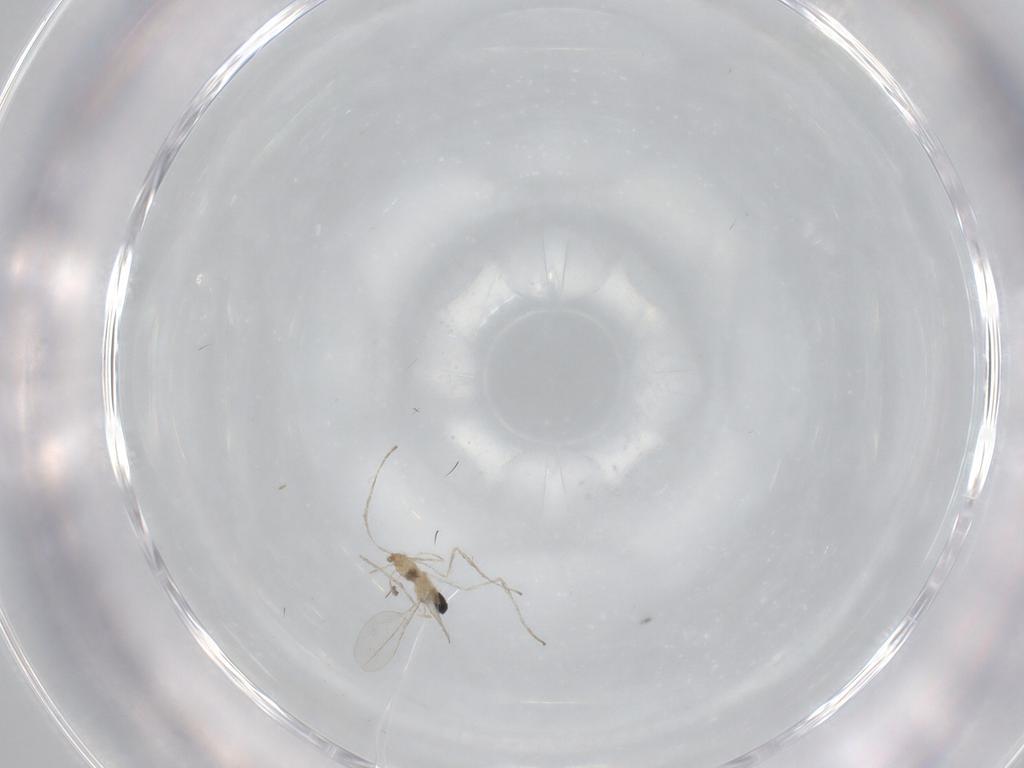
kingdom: Animalia
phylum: Arthropoda
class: Insecta
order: Diptera
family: Cecidomyiidae
